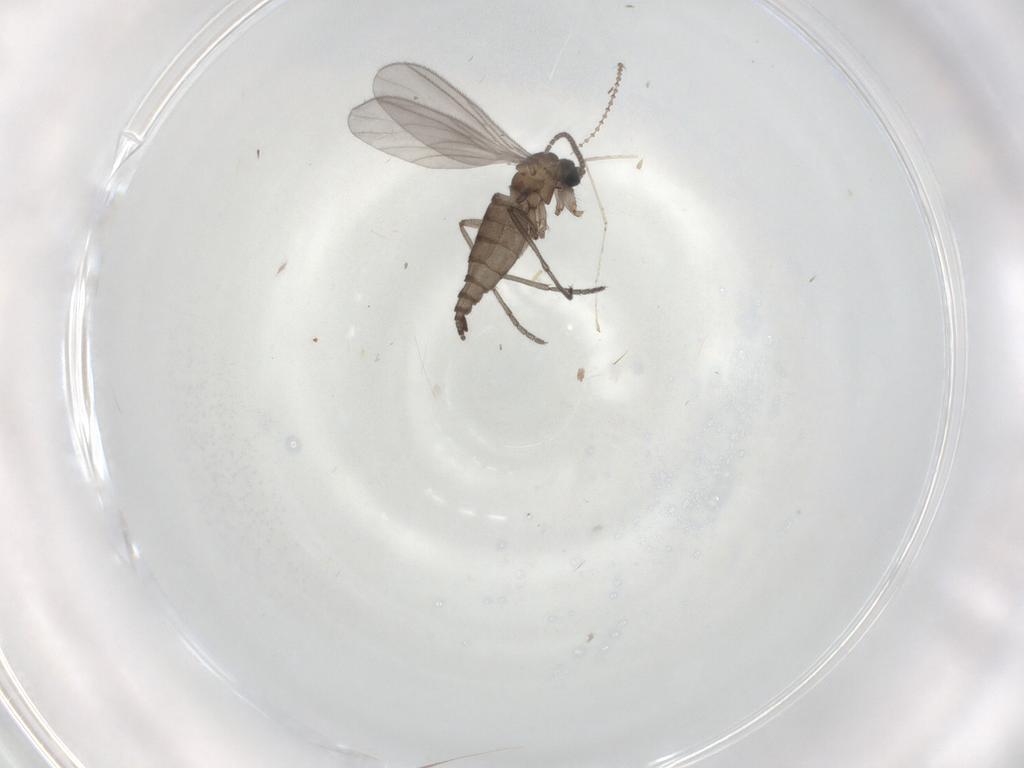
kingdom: Animalia
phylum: Arthropoda
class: Insecta
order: Diptera
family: Sciaridae
